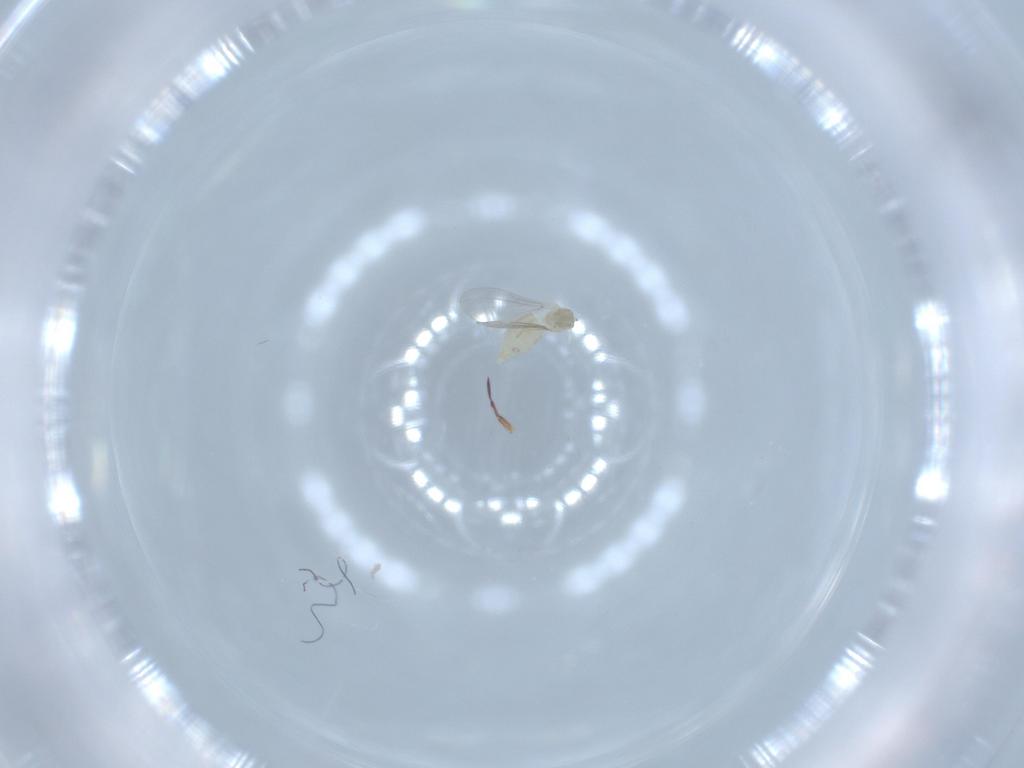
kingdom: Animalia
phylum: Arthropoda
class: Insecta
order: Diptera
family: Cecidomyiidae
